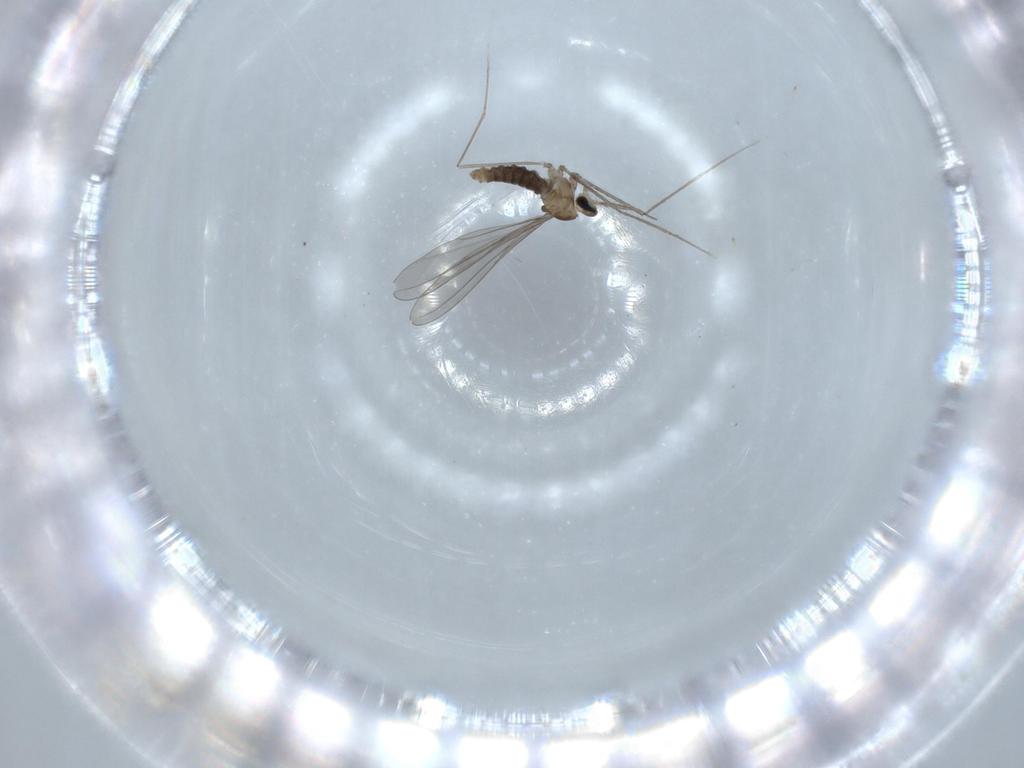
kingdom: Animalia
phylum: Arthropoda
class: Insecta
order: Diptera
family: Cecidomyiidae
